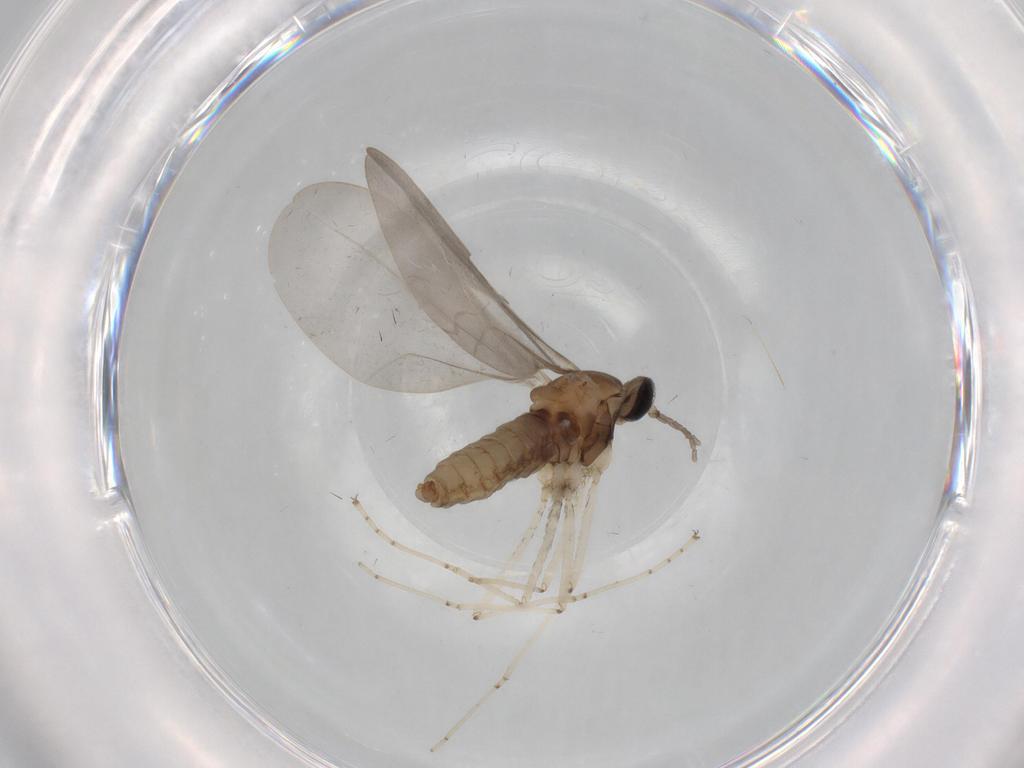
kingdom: Animalia
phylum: Arthropoda
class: Insecta
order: Diptera
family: Cecidomyiidae
